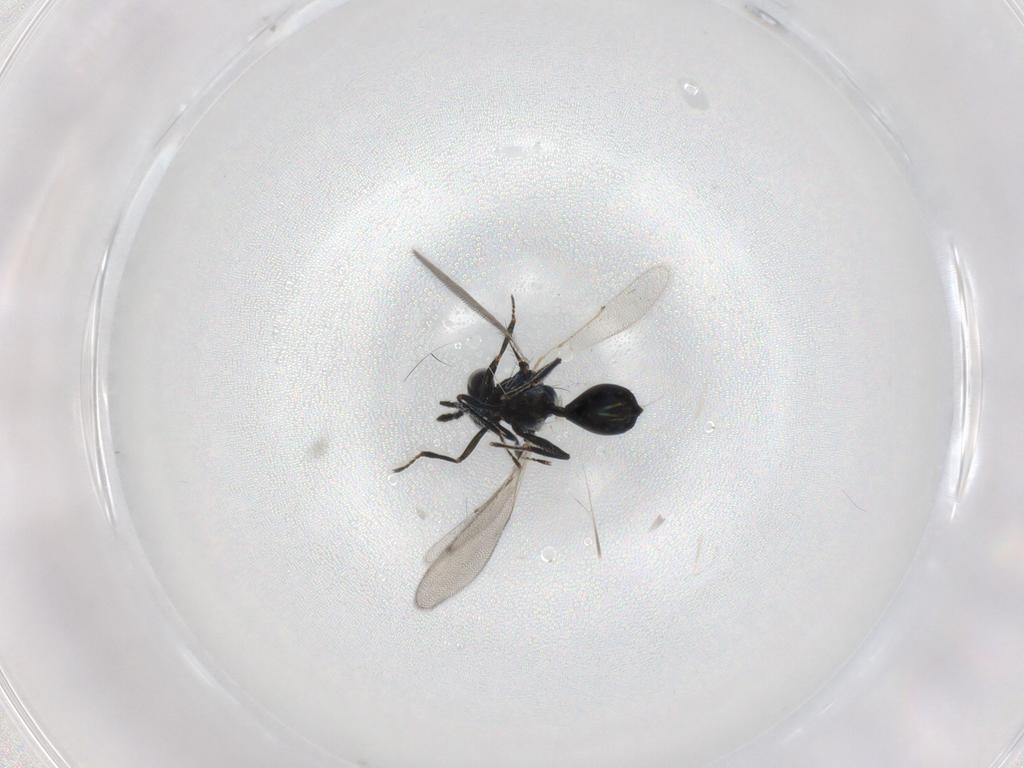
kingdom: Animalia
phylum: Arthropoda
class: Insecta
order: Hymenoptera
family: Eulophidae
